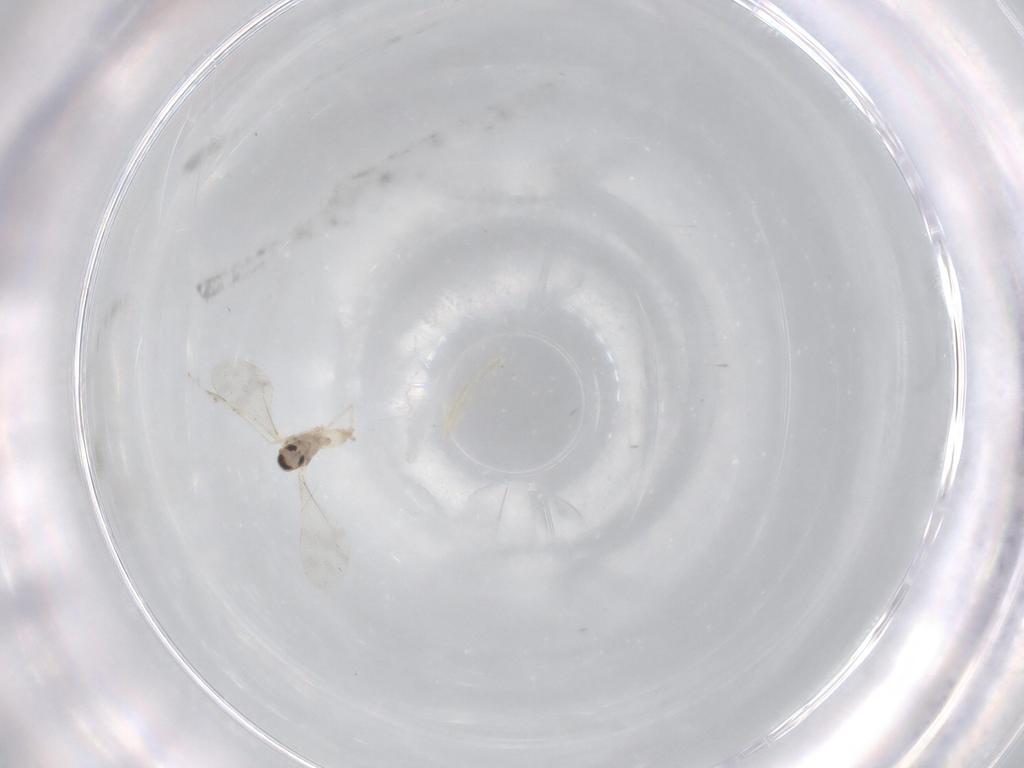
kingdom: Animalia
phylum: Arthropoda
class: Insecta
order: Diptera
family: Cecidomyiidae
